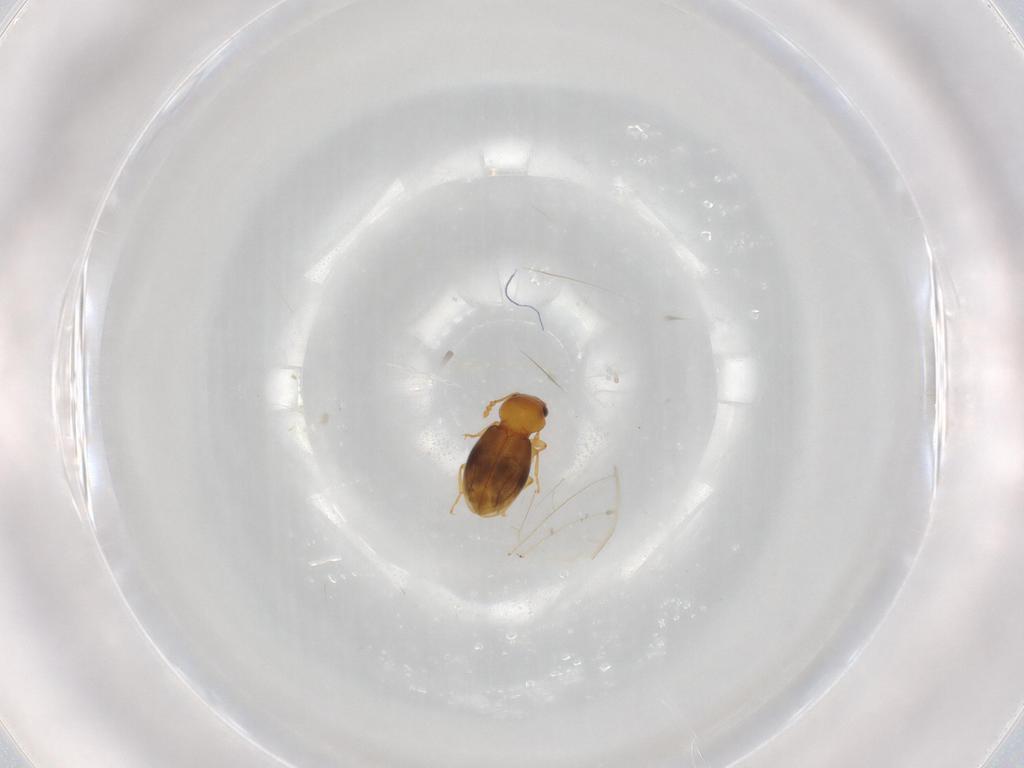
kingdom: Animalia
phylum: Arthropoda
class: Insecta
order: Coleoptera
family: Salpingidae
